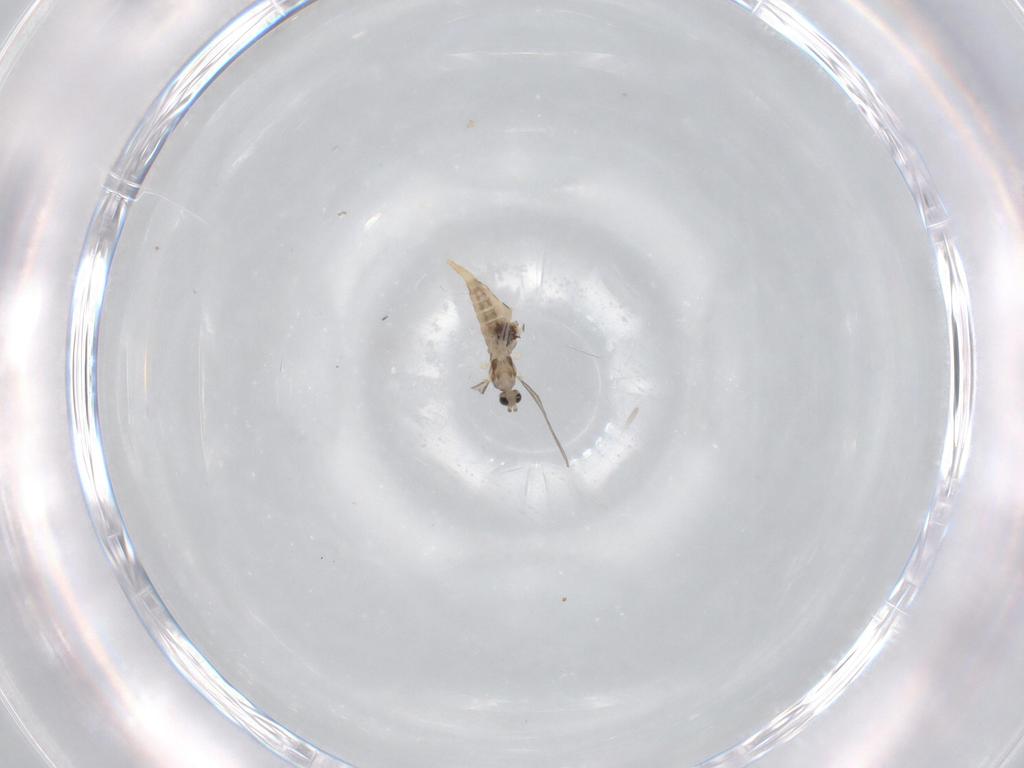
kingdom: Animalia
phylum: Arthropoda
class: Insecta
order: Diptera
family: Cecidomyiidae
